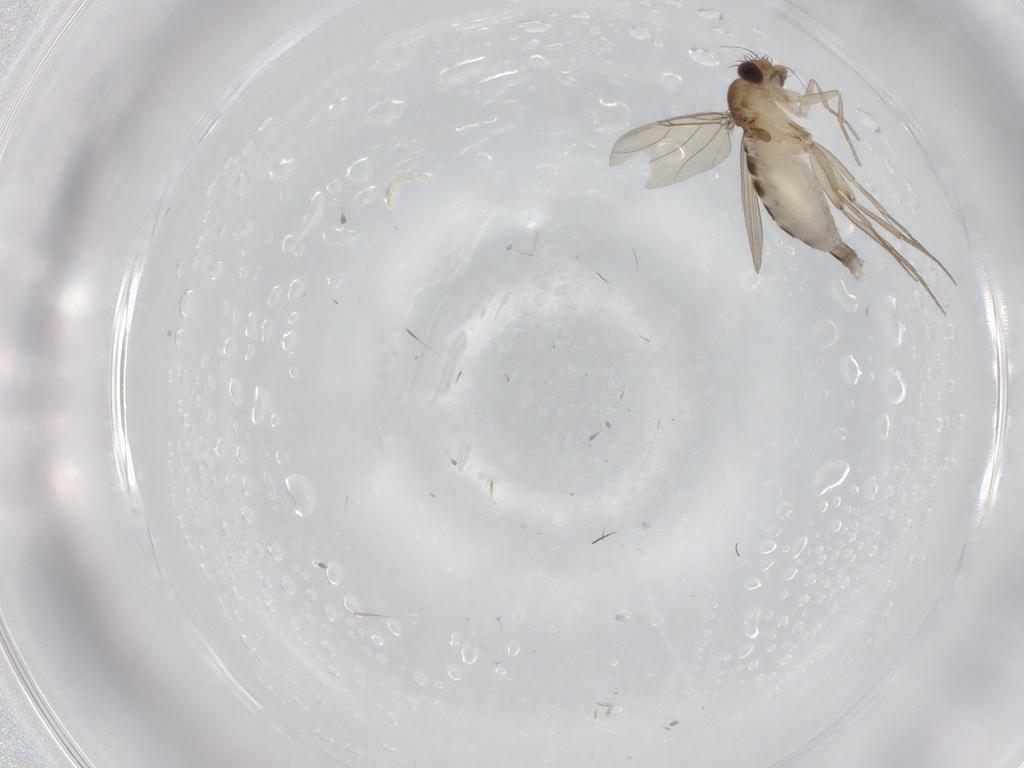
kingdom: Animalia
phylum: Arthropoda
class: Insecta
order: Diptera
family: Phoridae
